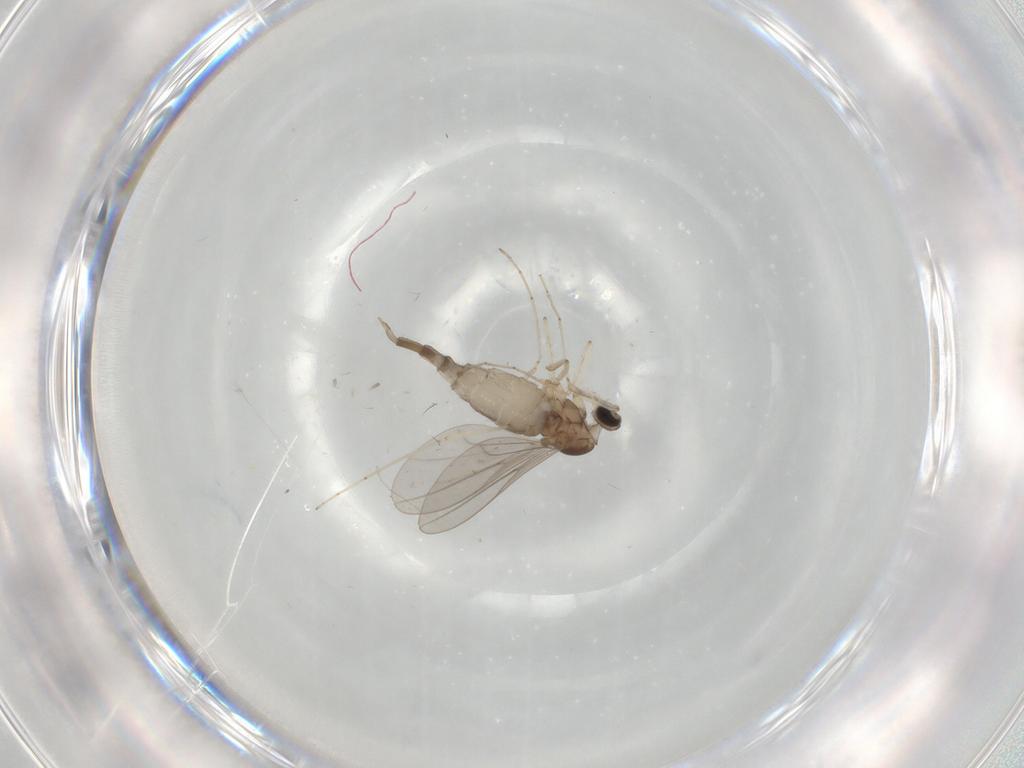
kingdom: Animalia
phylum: Arthropoda
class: Insecta
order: Diptera
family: Cecidomyiidae
